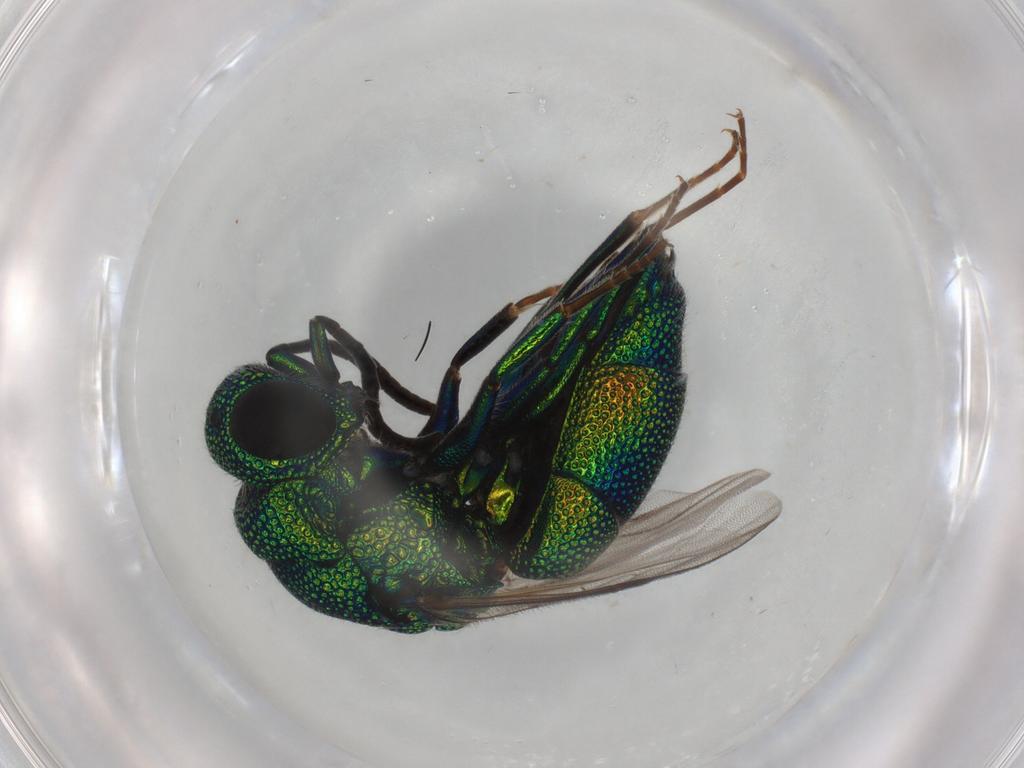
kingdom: Animalia
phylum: Arthropoda
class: Insecta
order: Hymenoptera
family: Chrysididae
